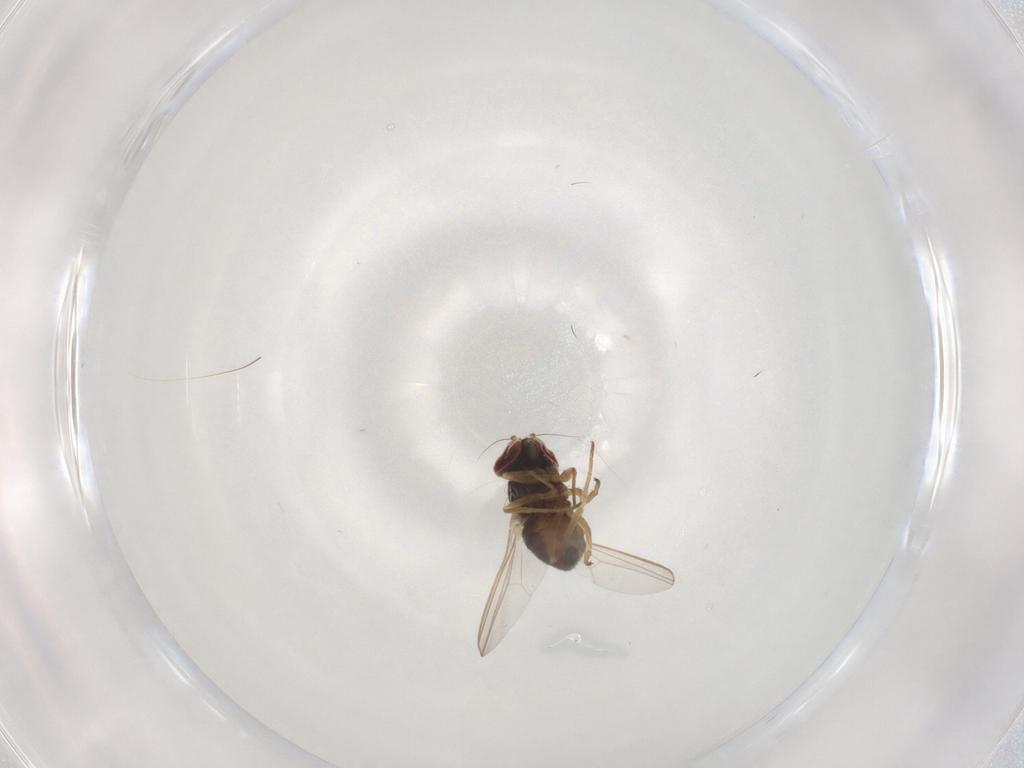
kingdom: Animalia
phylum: Arthropoda
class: Insecta
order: Diptera
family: Dolichopodidae
